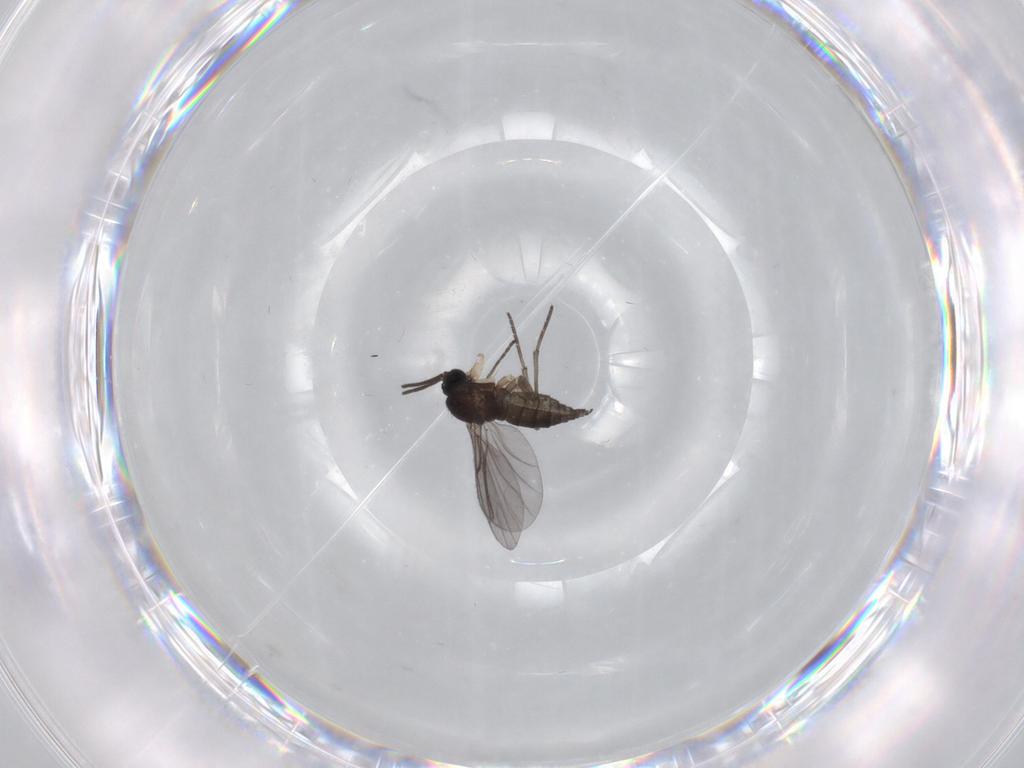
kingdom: Animalia
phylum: Arthropoda
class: Insecta
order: Diptera
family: Sciaridae
